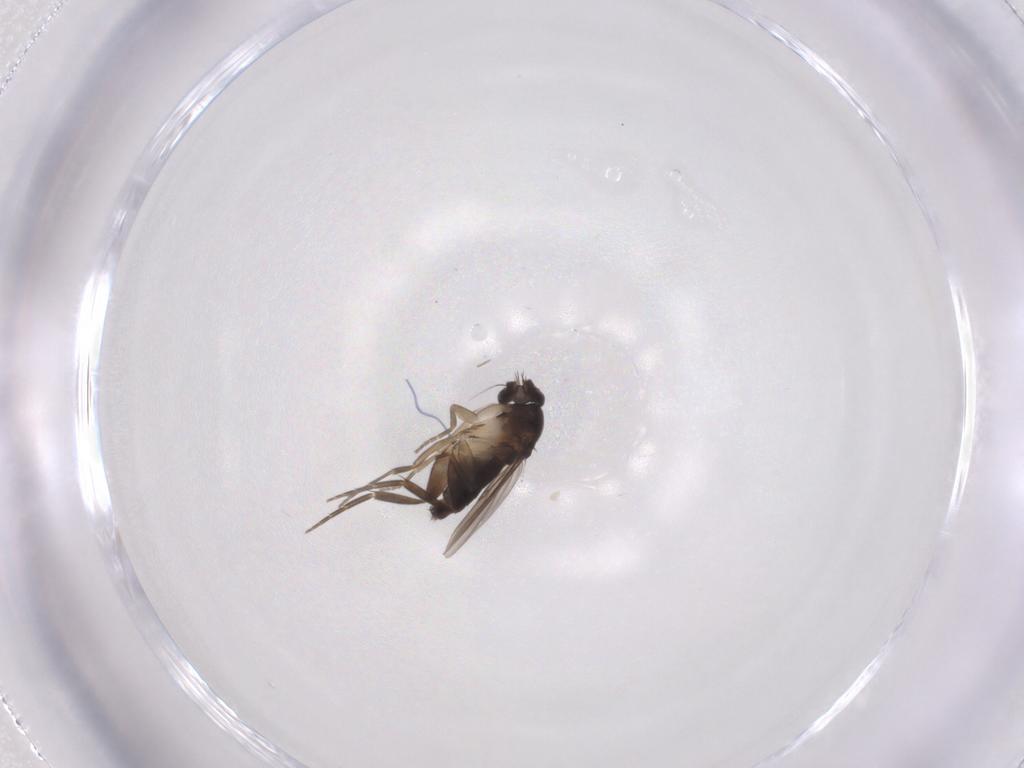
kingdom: Animalia
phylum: Arthropoda
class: Insecta
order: Diptera
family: Phoridae
